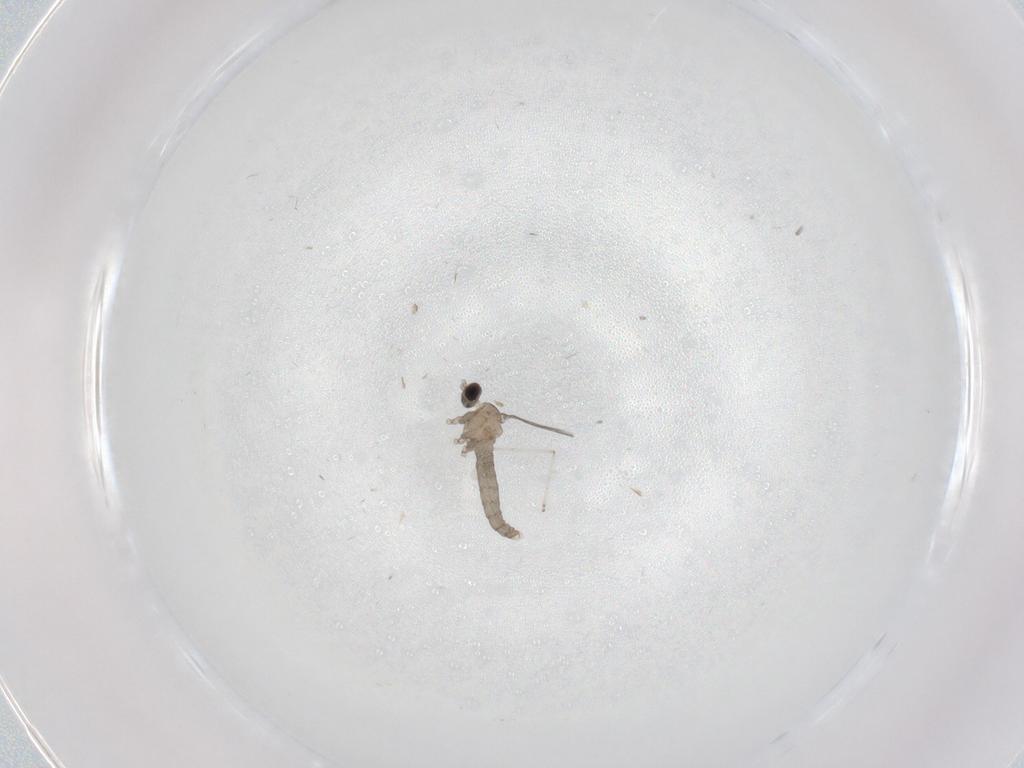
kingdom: Animalia
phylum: Arthropoda
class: Insecta
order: Diptera
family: Cecidomyiidae
